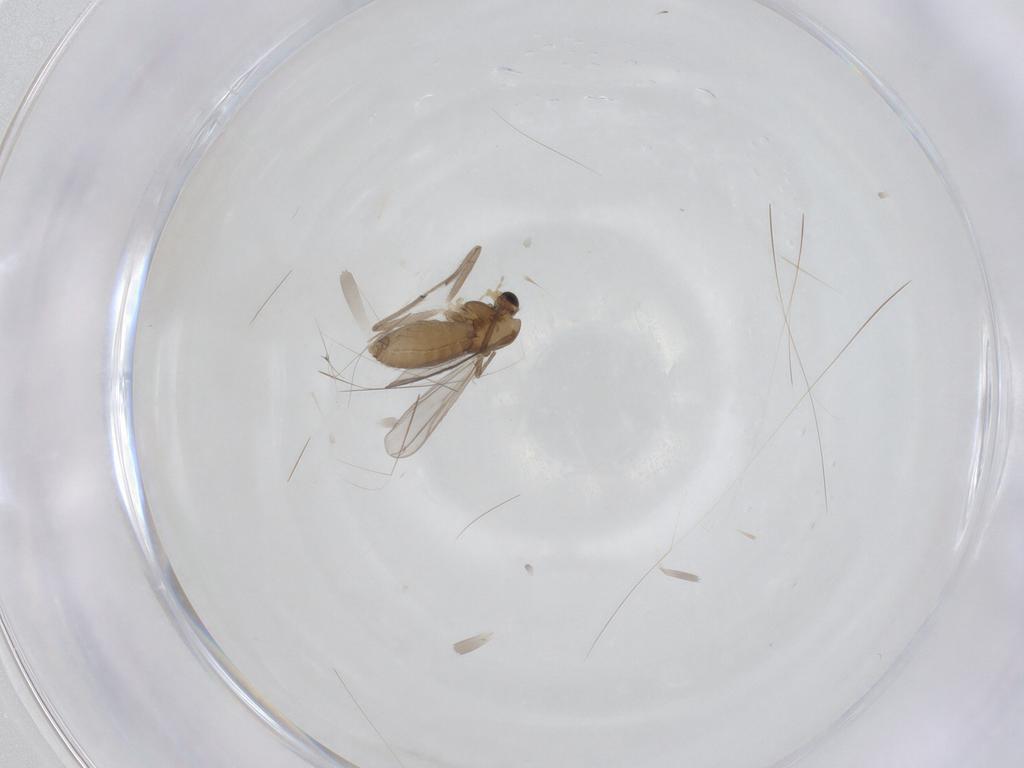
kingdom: Animalia
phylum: Arthropoda
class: Insecta
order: Diptera
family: Chironomidae
